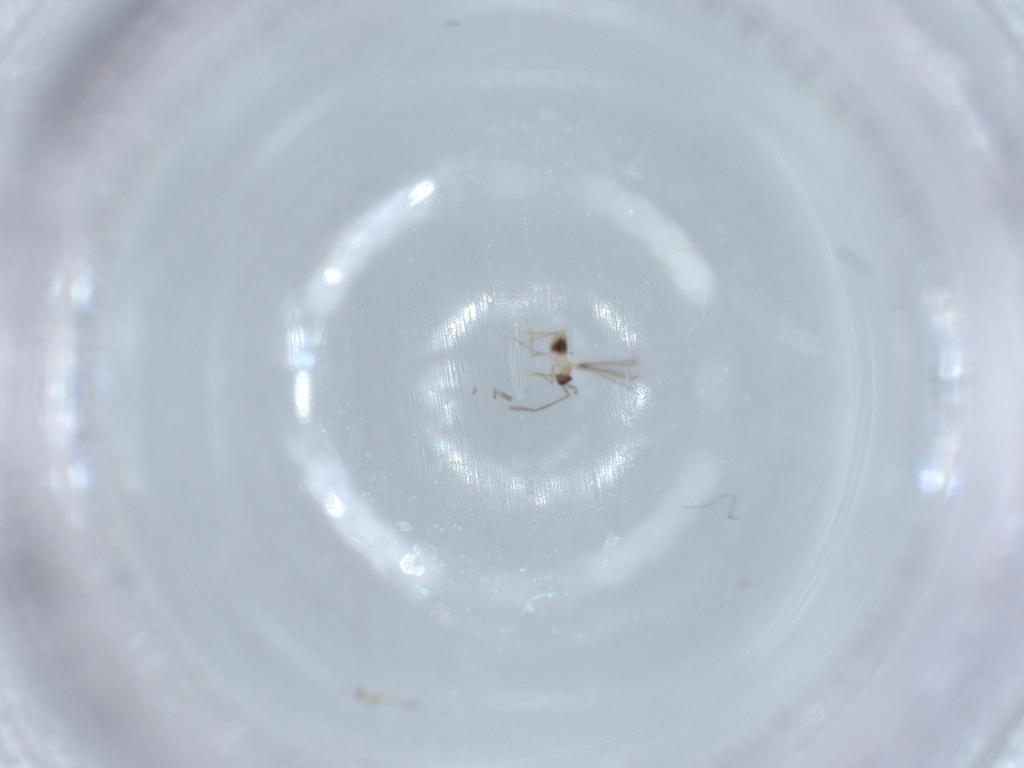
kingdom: Animalia
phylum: Arthropoda
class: Insecta
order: Hymenoptera
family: Mymaridae
